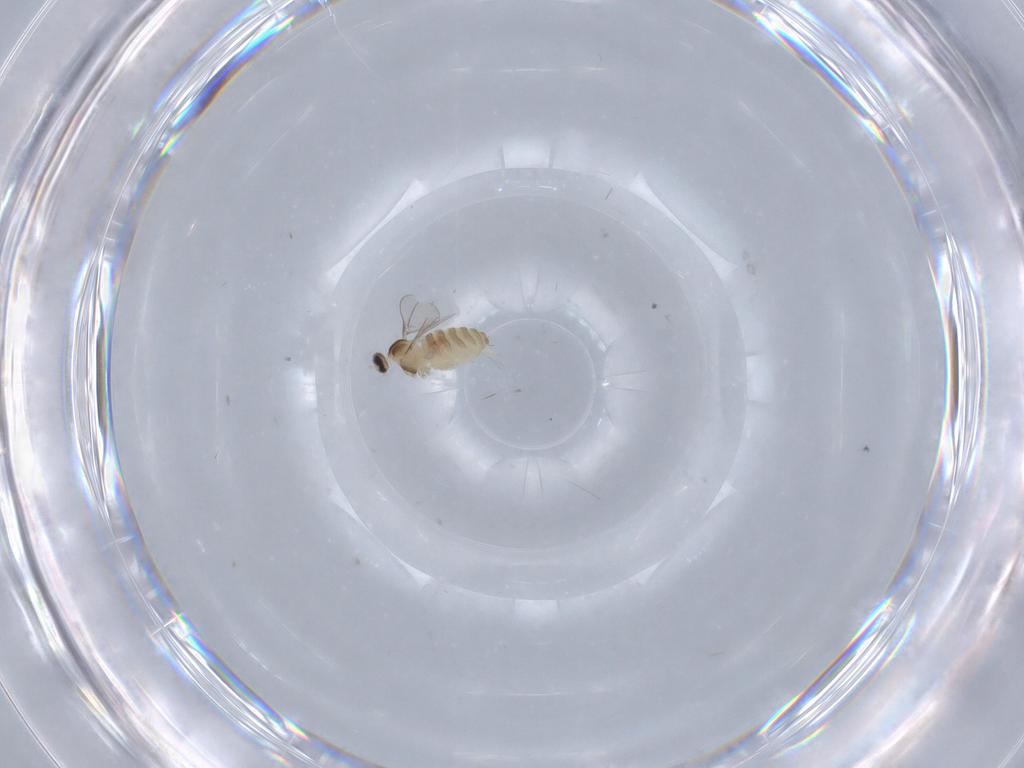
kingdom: Animalia
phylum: Arthropoda
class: Insecta
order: Diptera
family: Cecidomyiidae
